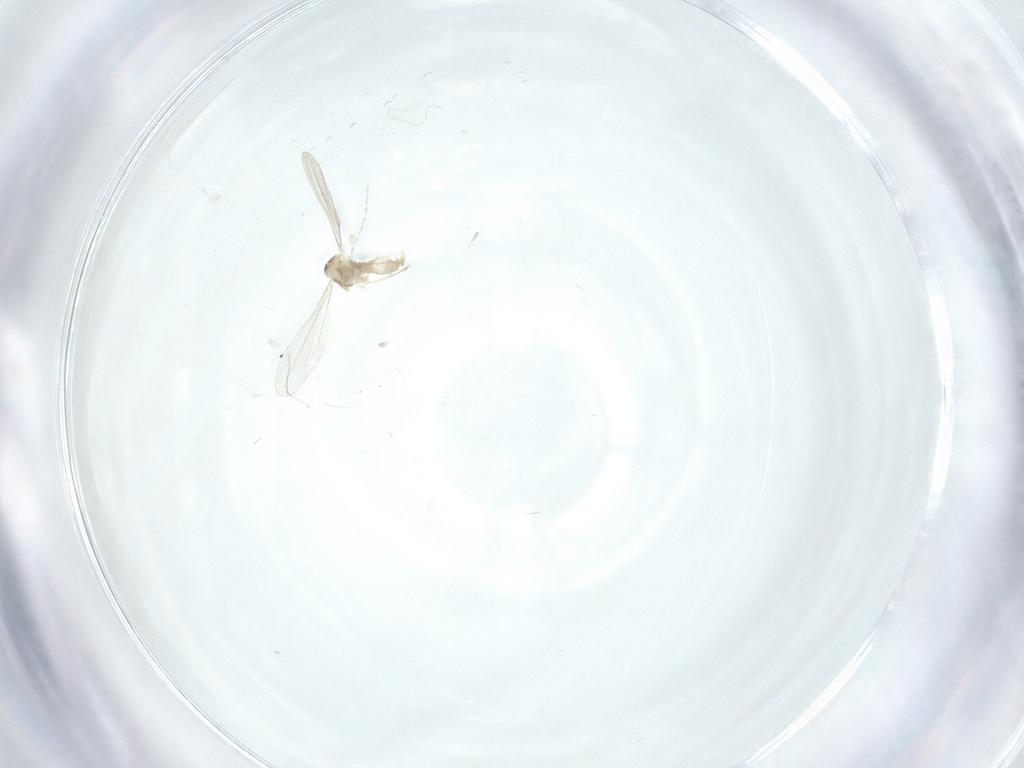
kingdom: Animalia
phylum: Arthropoda
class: Insecta
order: Diptera
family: Cecidomyiidae
